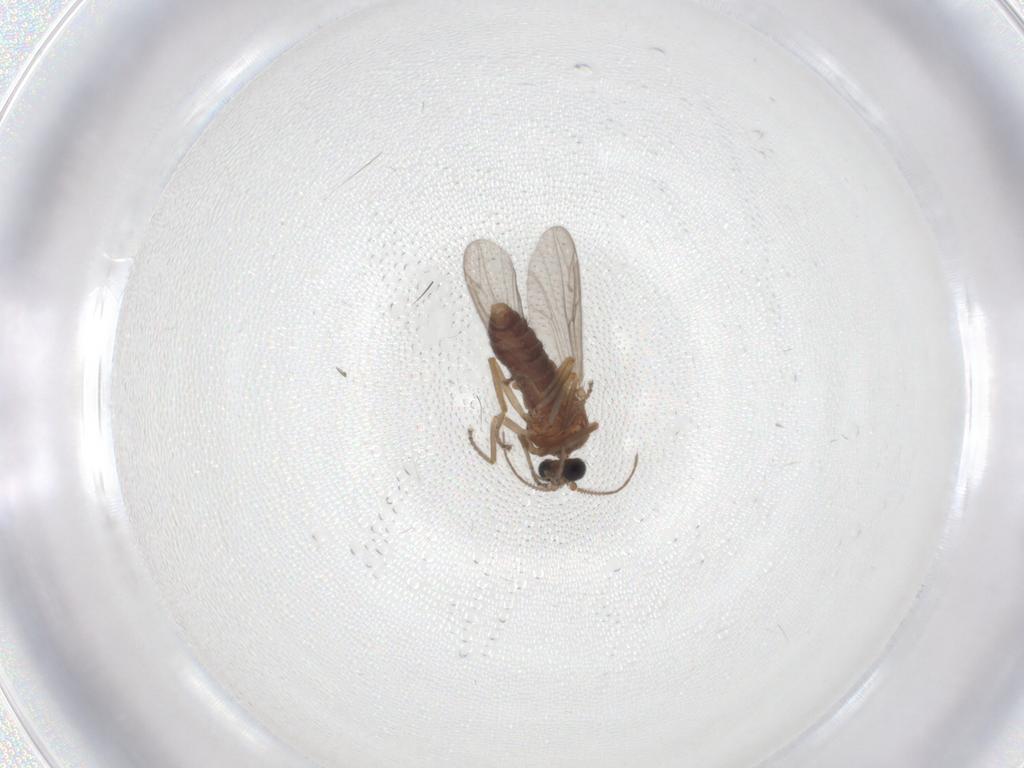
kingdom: Animalia
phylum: Arthropoda
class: Insecta
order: Diptera
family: Ceratopogonidae
